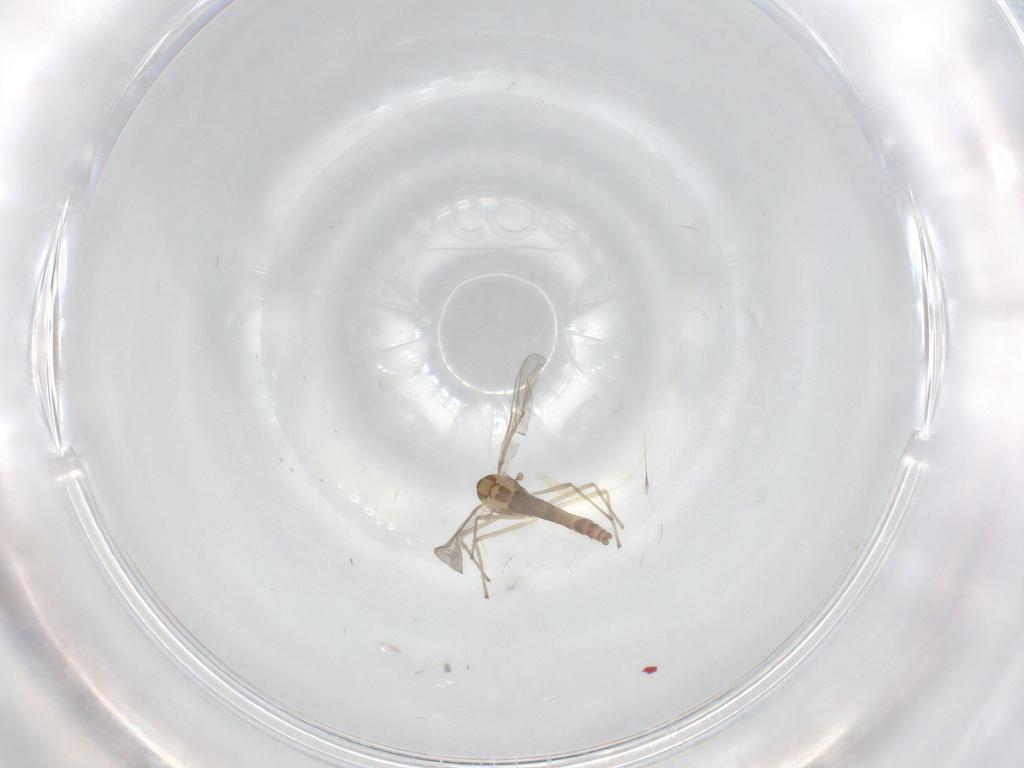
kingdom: Animalia
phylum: Arthropoda
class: Insecta
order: Diptera
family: Chironomidae
